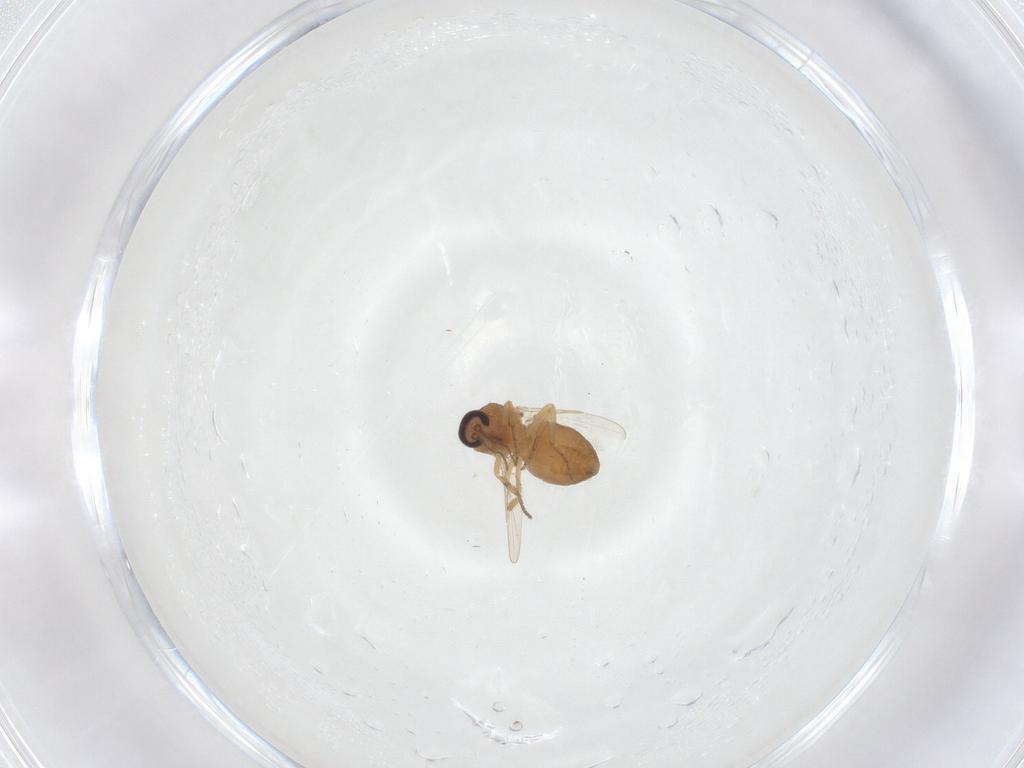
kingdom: Animalia
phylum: Arthropoda
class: Insecta
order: Diptera
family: Ceratopogonidae
